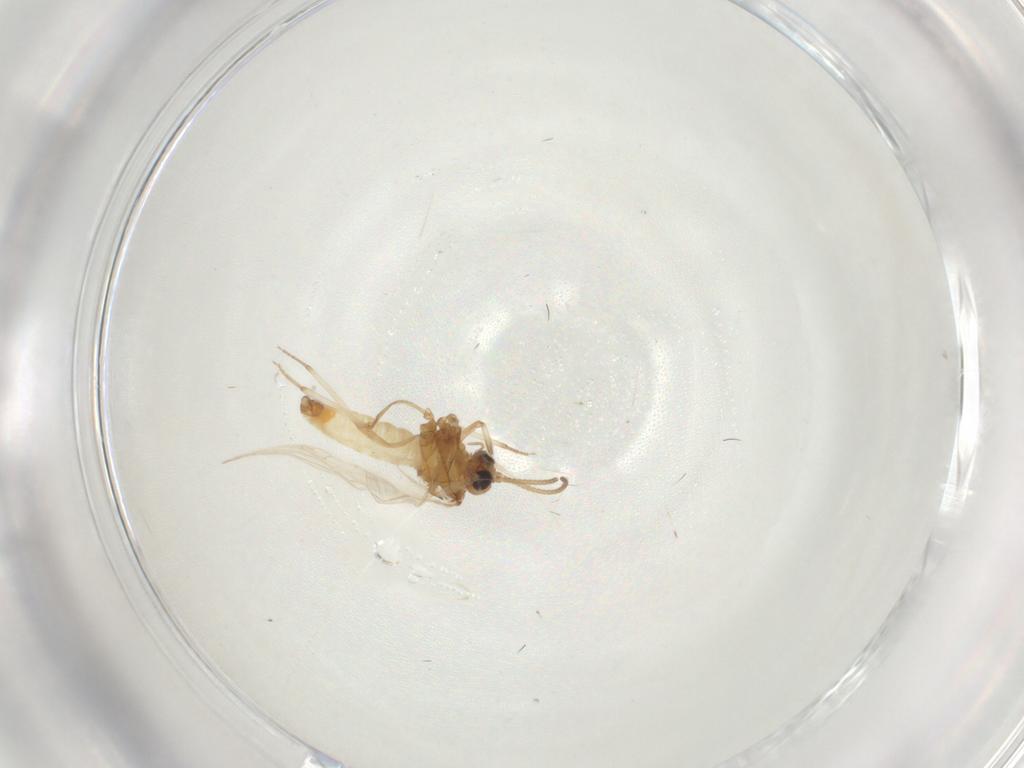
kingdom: Animalia
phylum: Arthropoda
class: Insecta
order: Neuroptera
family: Coniopterygidae
